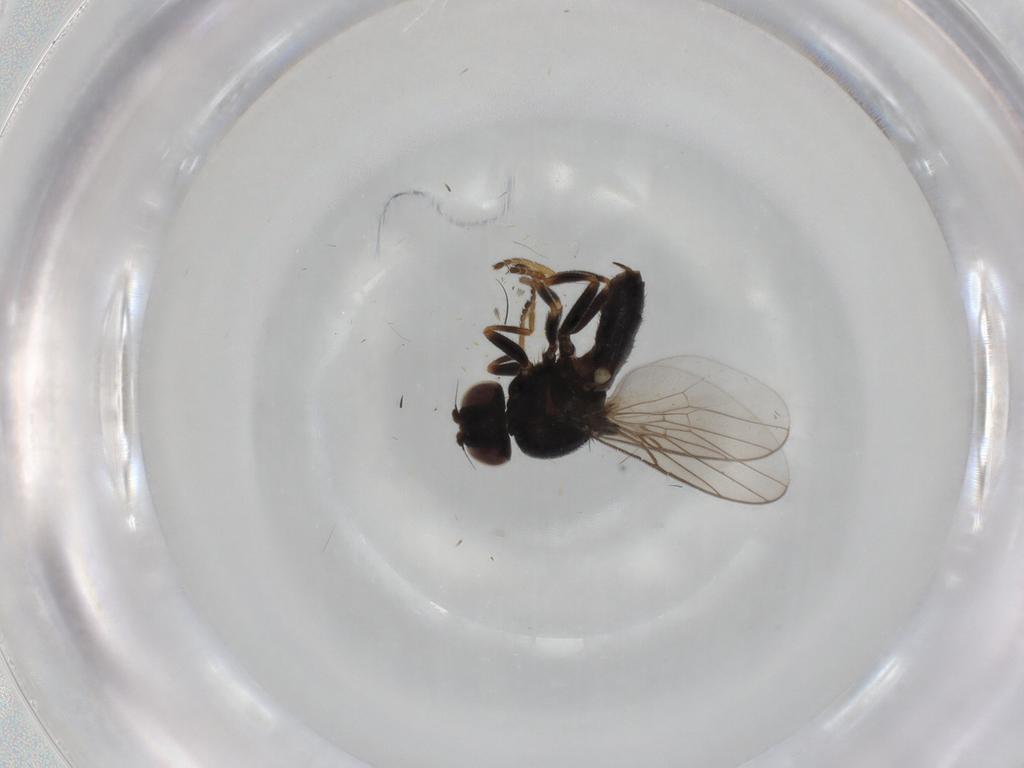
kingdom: Animalia
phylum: Arthropoda
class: Insecta
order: Diptera
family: Chloropidae
